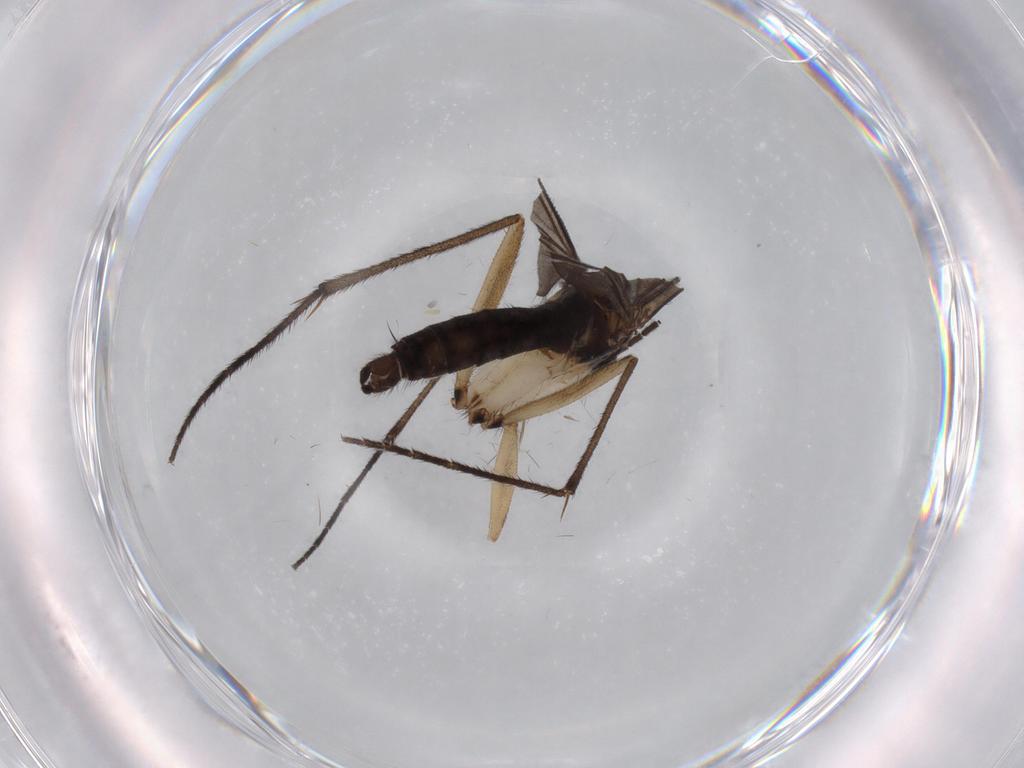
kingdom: Animalia
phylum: Arthropoda
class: Insecta
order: Diptera
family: Sciaridae
